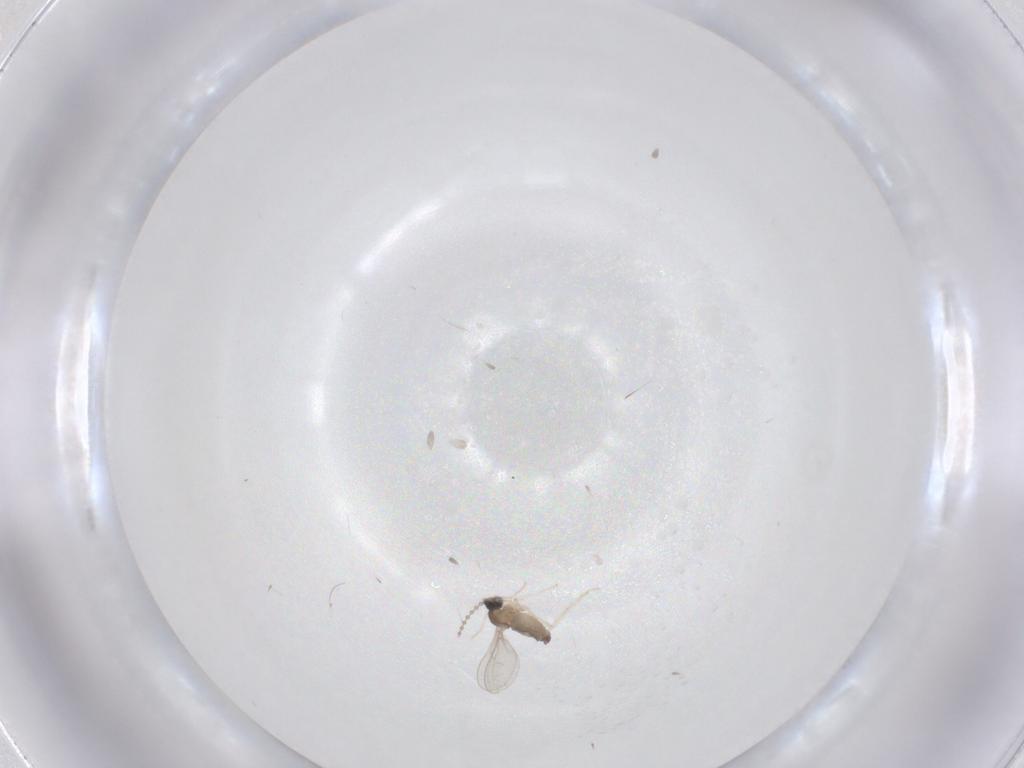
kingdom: Animalia
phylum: Arthropoda
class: Insecta
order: Diptera
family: Cecidomyiidae
